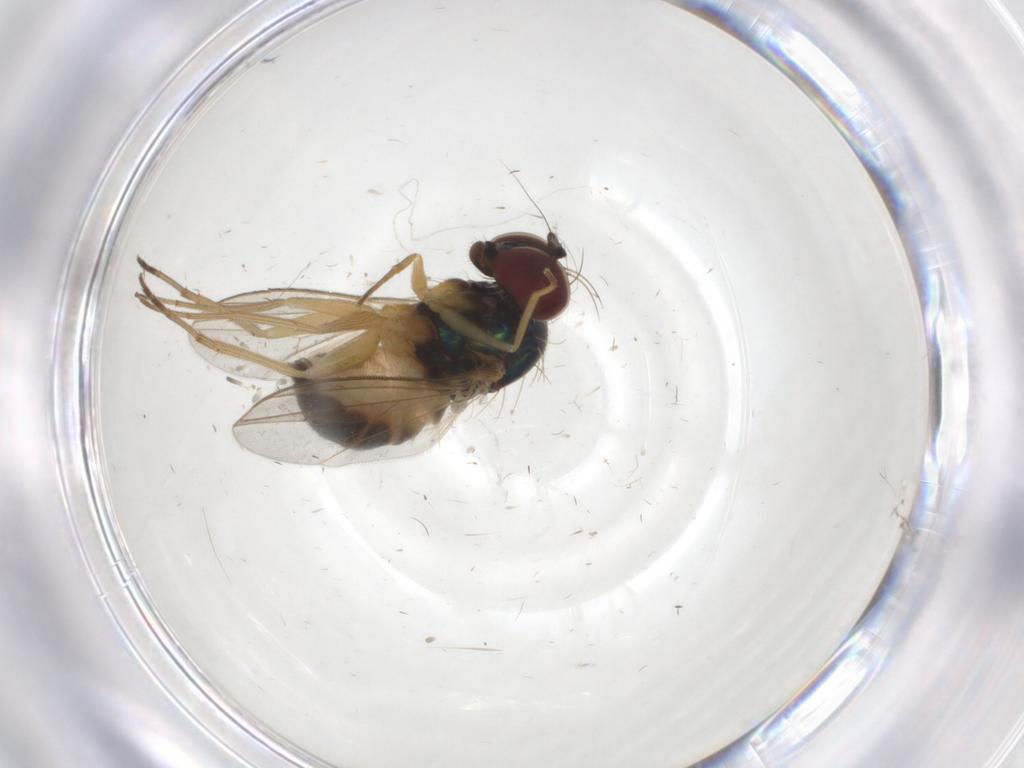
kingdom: Animalia
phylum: Arthropoda
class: Insecta
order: Diptera
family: Dolichopodidae
